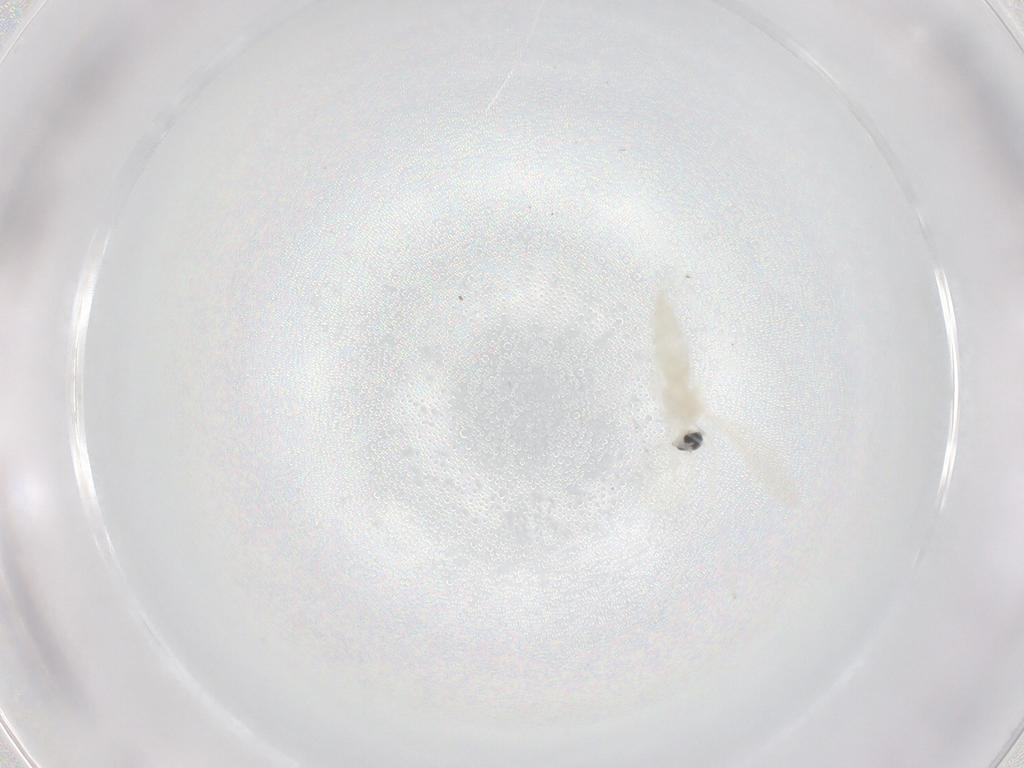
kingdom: Animalia
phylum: Arthropoda
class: Insecta
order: Diptera
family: Cecidomyiidae
